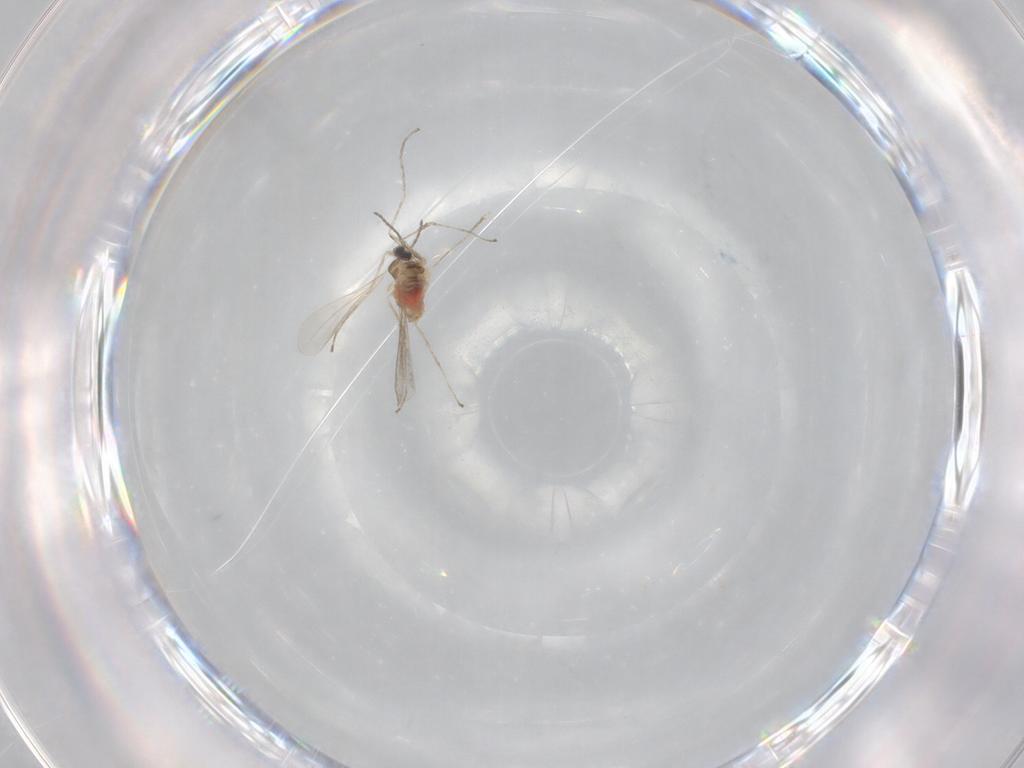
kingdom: Animalia
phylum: Arthropoda
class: Insecta
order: Diptera
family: Cecidomyiidae
